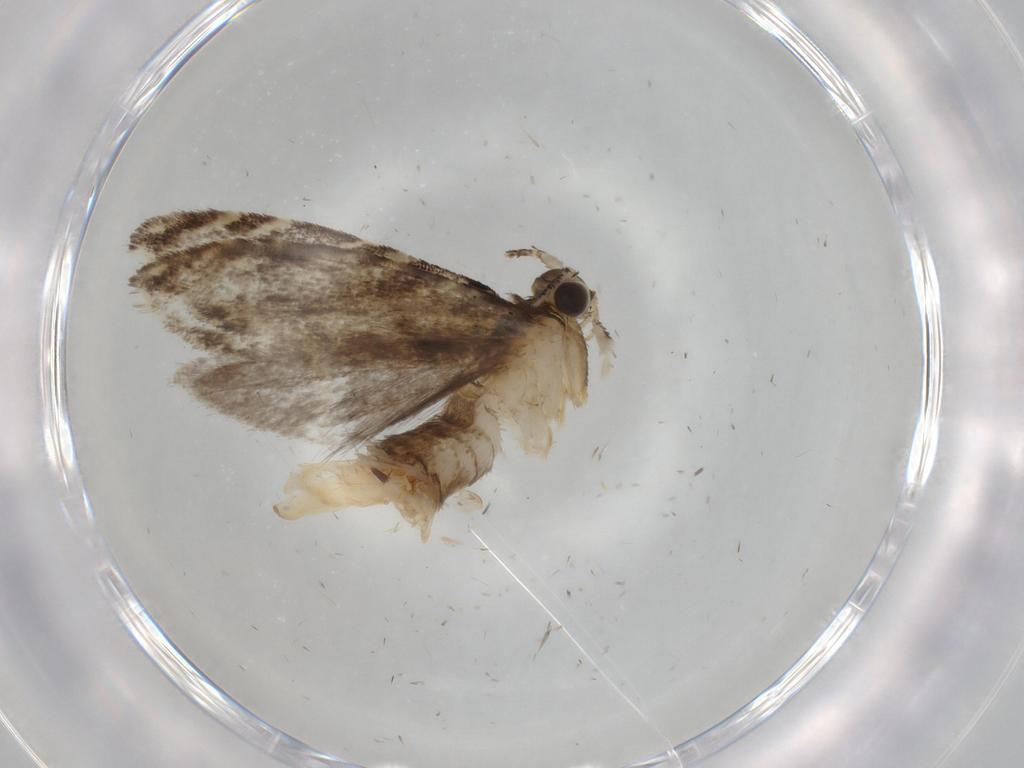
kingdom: Animalia
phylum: Arthropoda
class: Insecta
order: Lepidoptera
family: Tineidae
